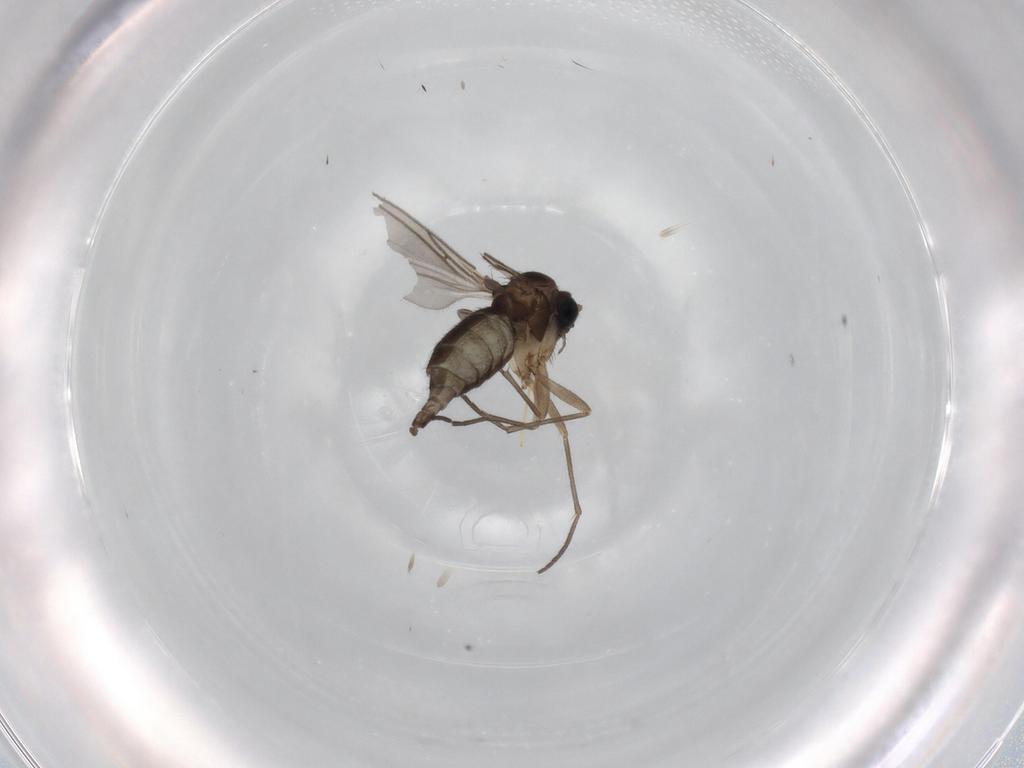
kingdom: Animalia
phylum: Arthropoda
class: Insecta
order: Diptera
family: Sciaridae
